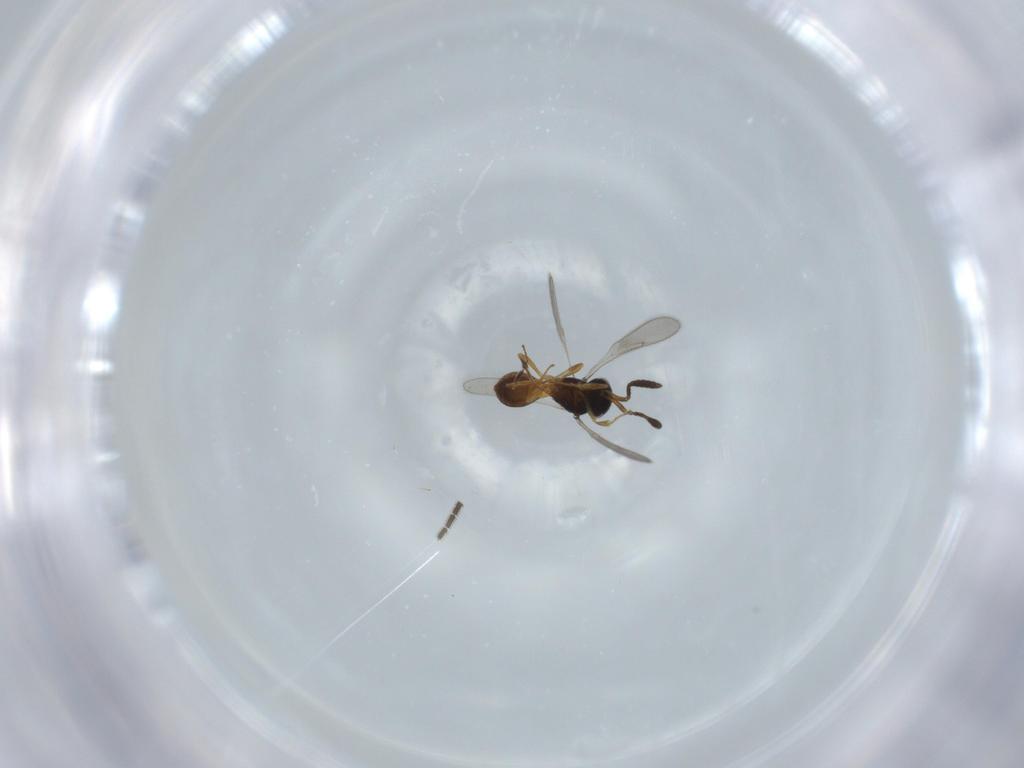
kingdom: Animalia
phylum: Arthropoda
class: Insecta
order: Hymenoptera
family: Scelionidae
